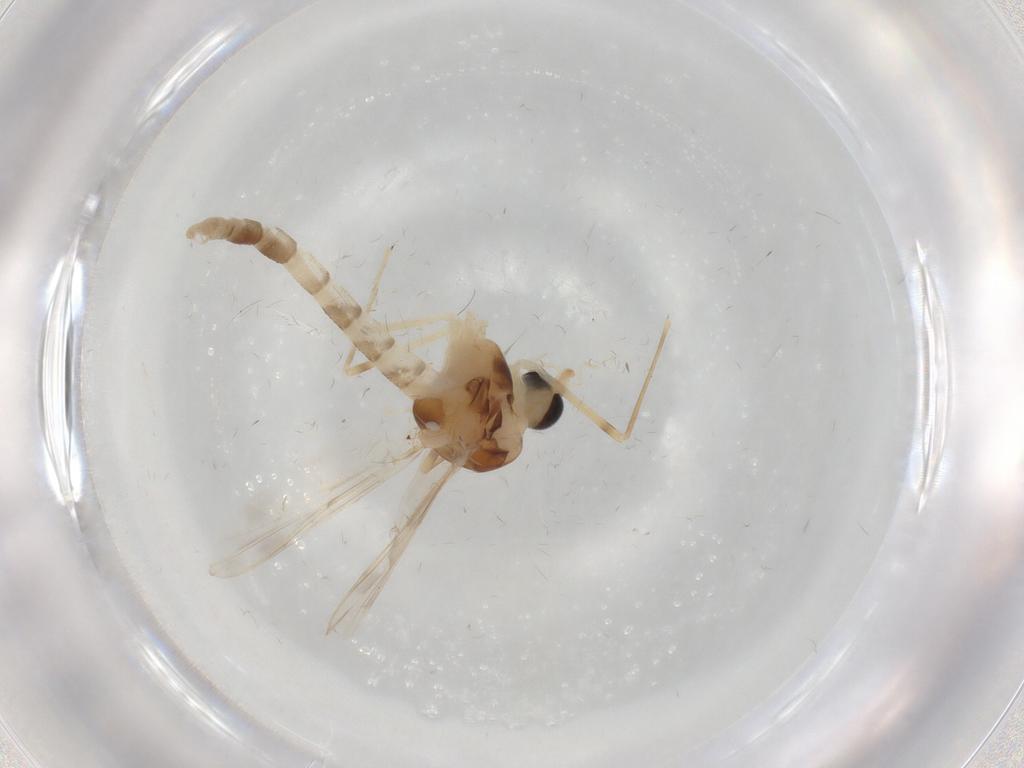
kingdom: Animalia
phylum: Arthropoda
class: Insecta
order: Diptera
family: Chironomidae
